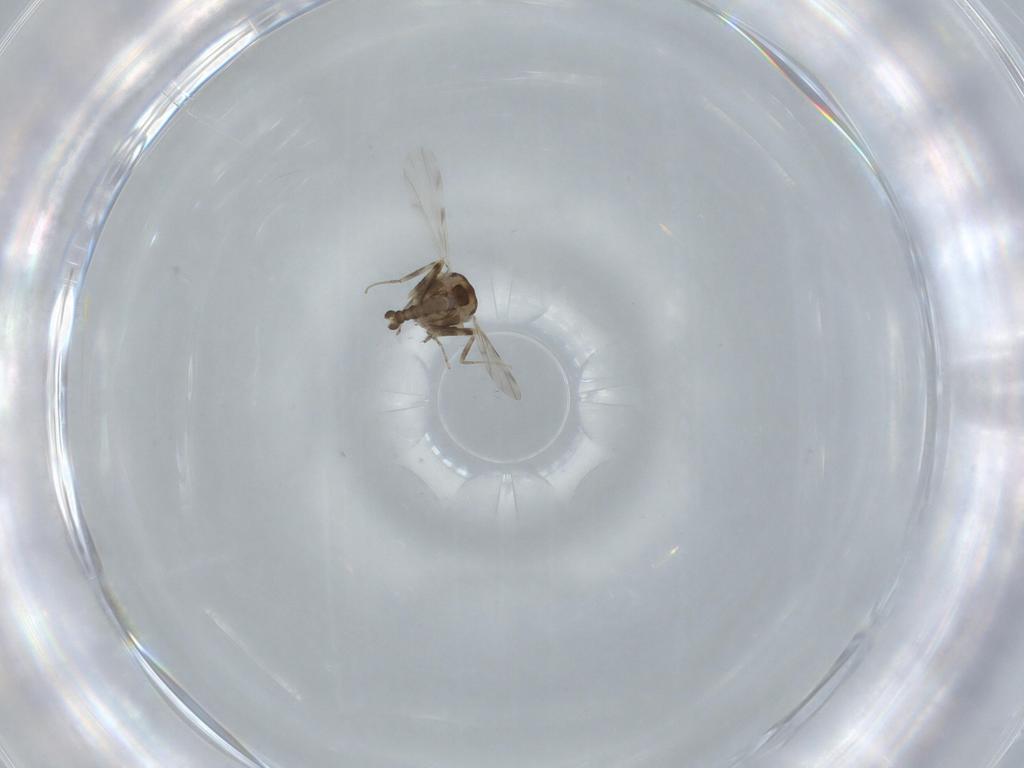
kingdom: Animalia
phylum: Arthropoda
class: Insecta
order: Diptera
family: Ceratopogonidae
